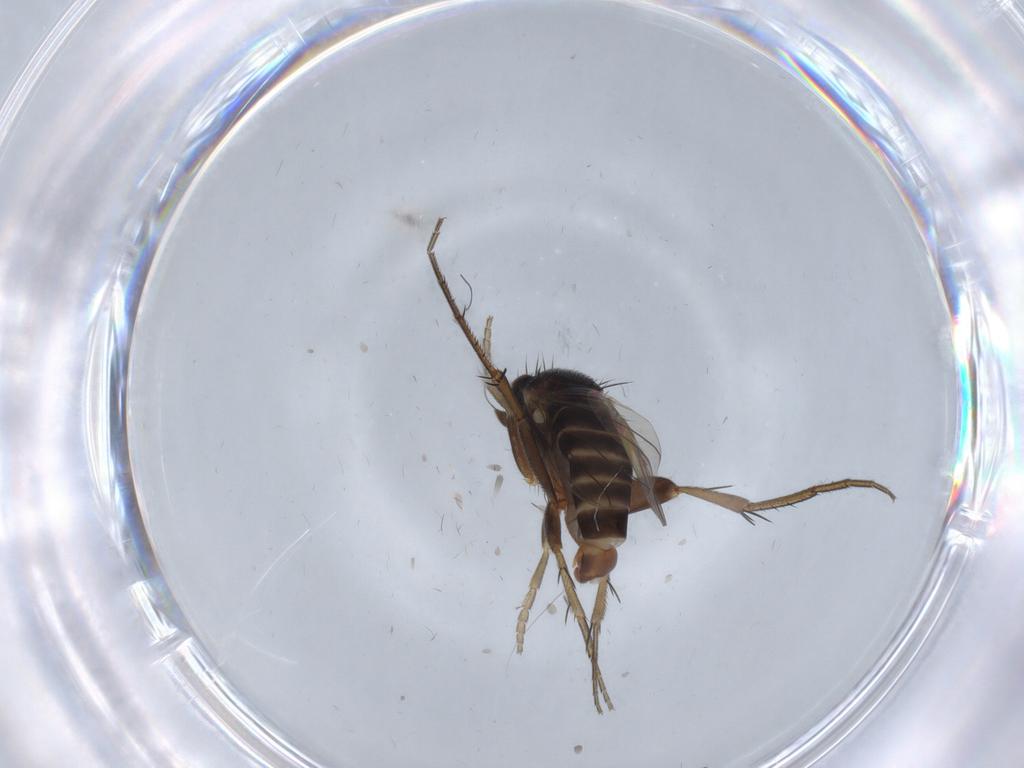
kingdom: Animalia
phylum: Arthropoda
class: Insecta
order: Diptera
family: Phoridae
